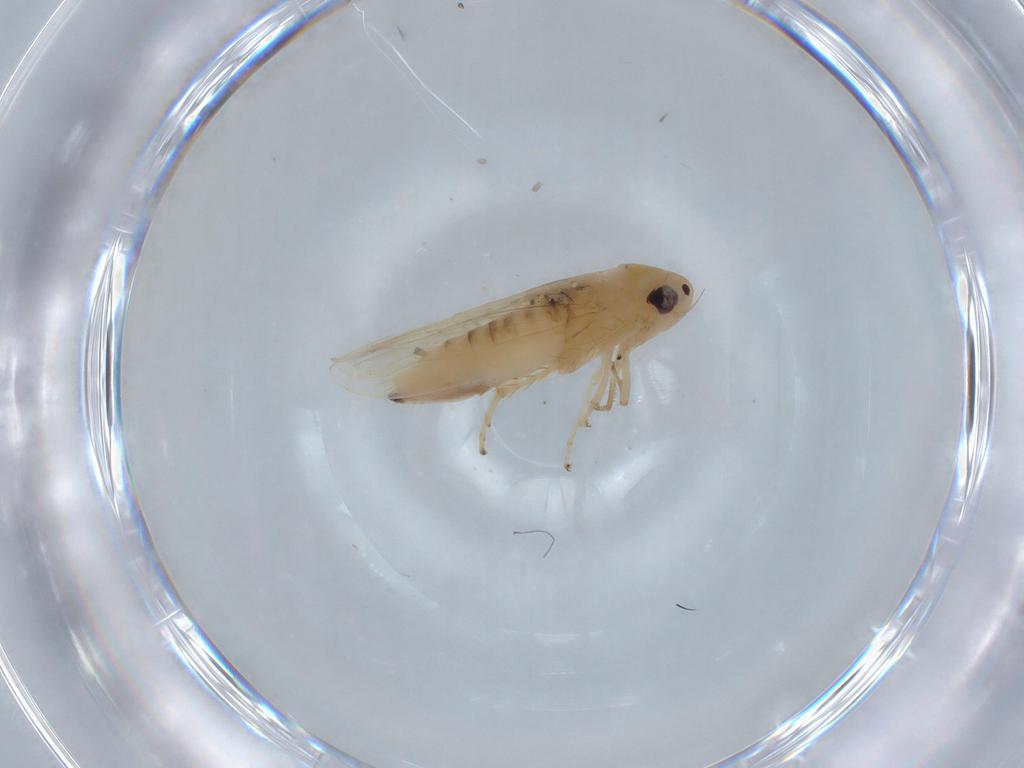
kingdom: Animalia
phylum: Arthropoda
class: Insecta
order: Hemiptera
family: Cicadellidae
